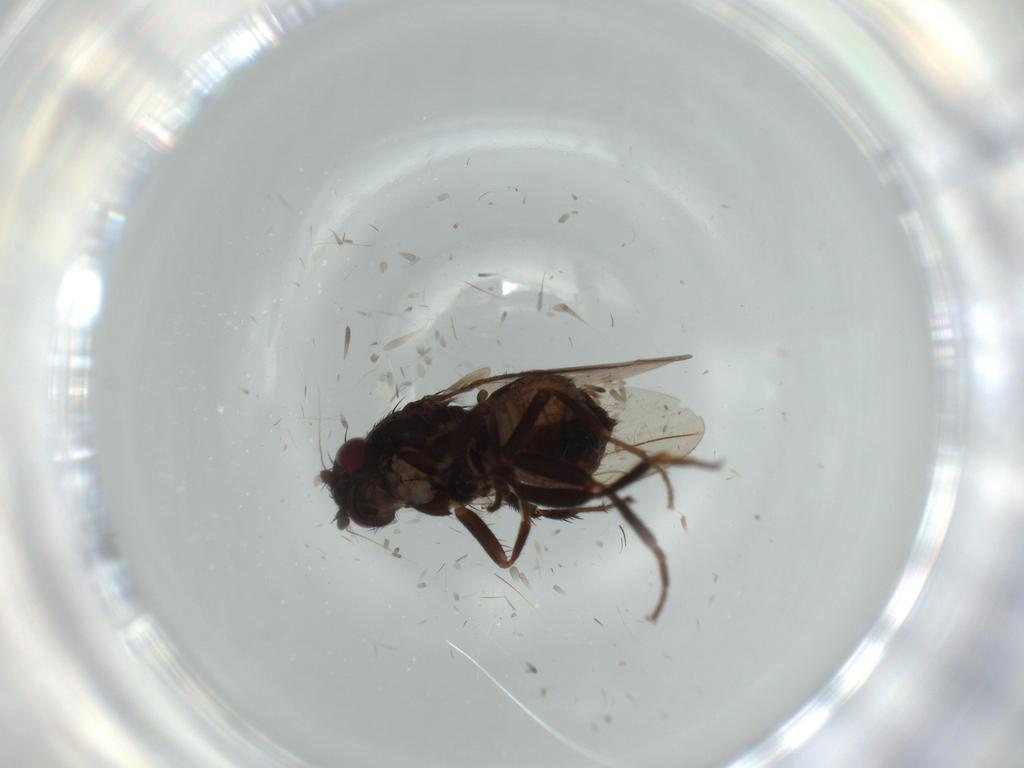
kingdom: Animalia
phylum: Arthropoda
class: Insecta
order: Diptera
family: Sphaeroceridae
